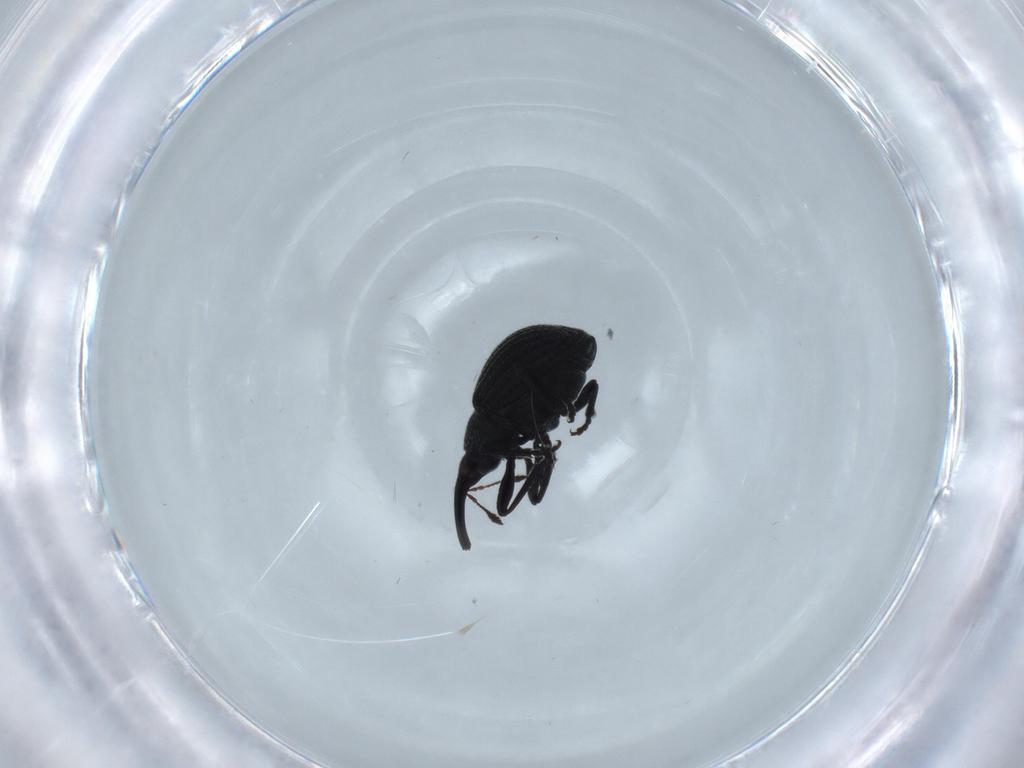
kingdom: Animalia
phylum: Arthropoda
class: Insecta
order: Coleoptera
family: Brentidae
